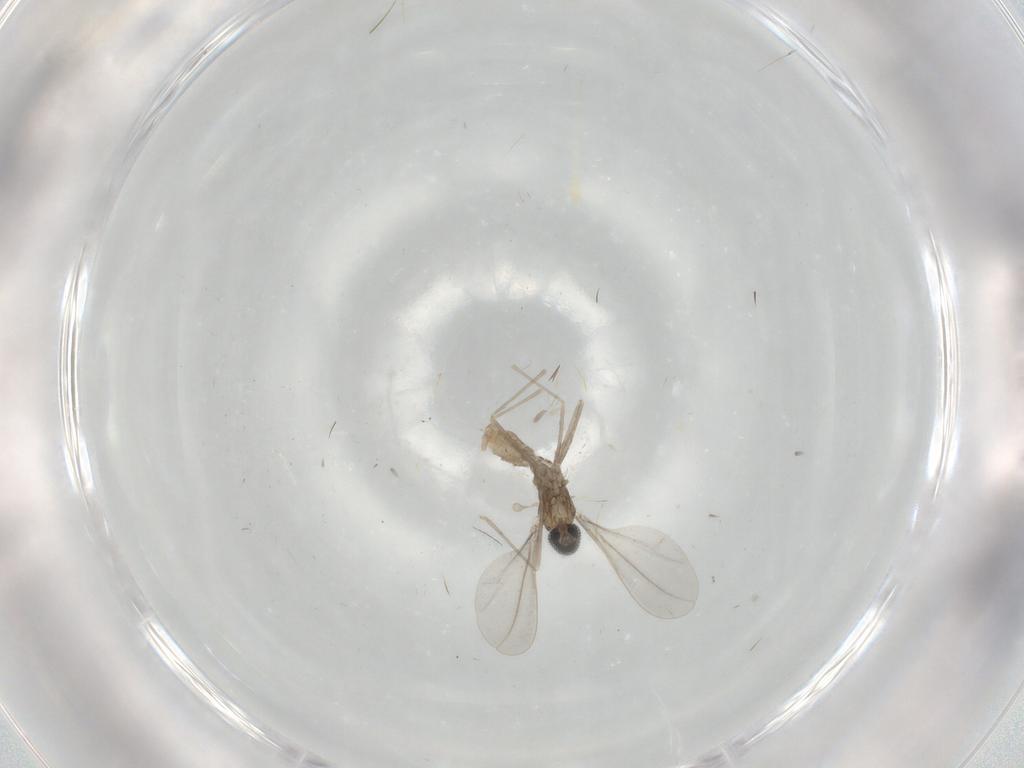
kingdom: Animalia
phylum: Arthropoda
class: Insecta
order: Diptera
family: Cecidomyiidae
